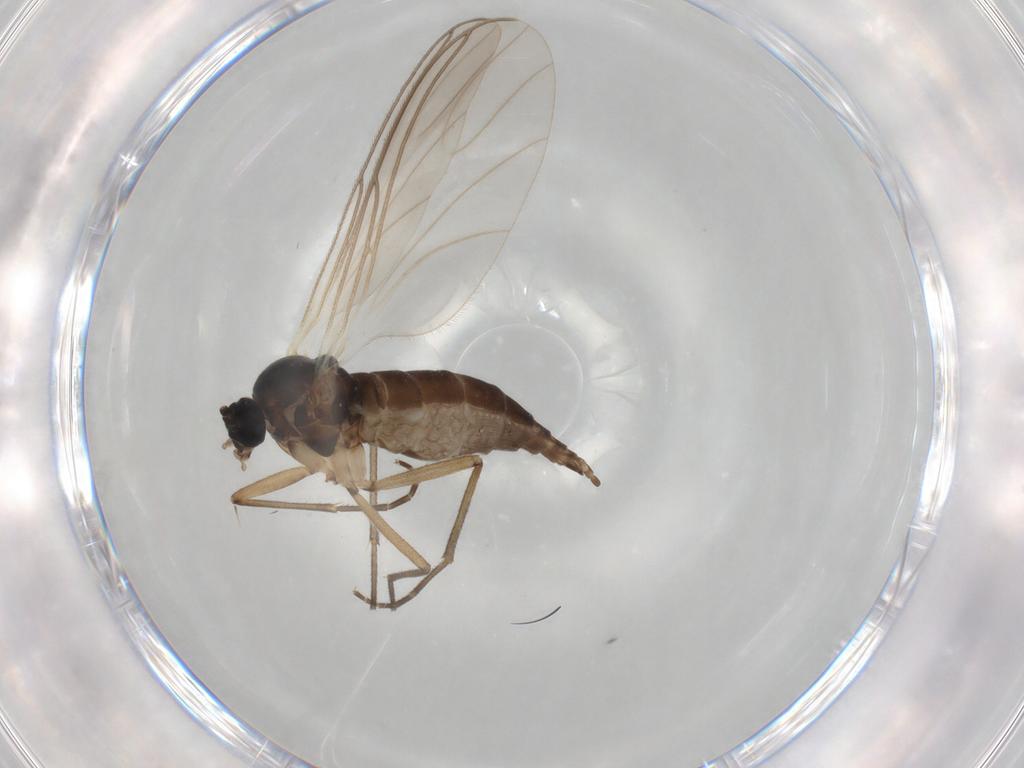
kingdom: Animalia
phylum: Arthropoda
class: Insecta
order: Diptera
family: Sciaridae
